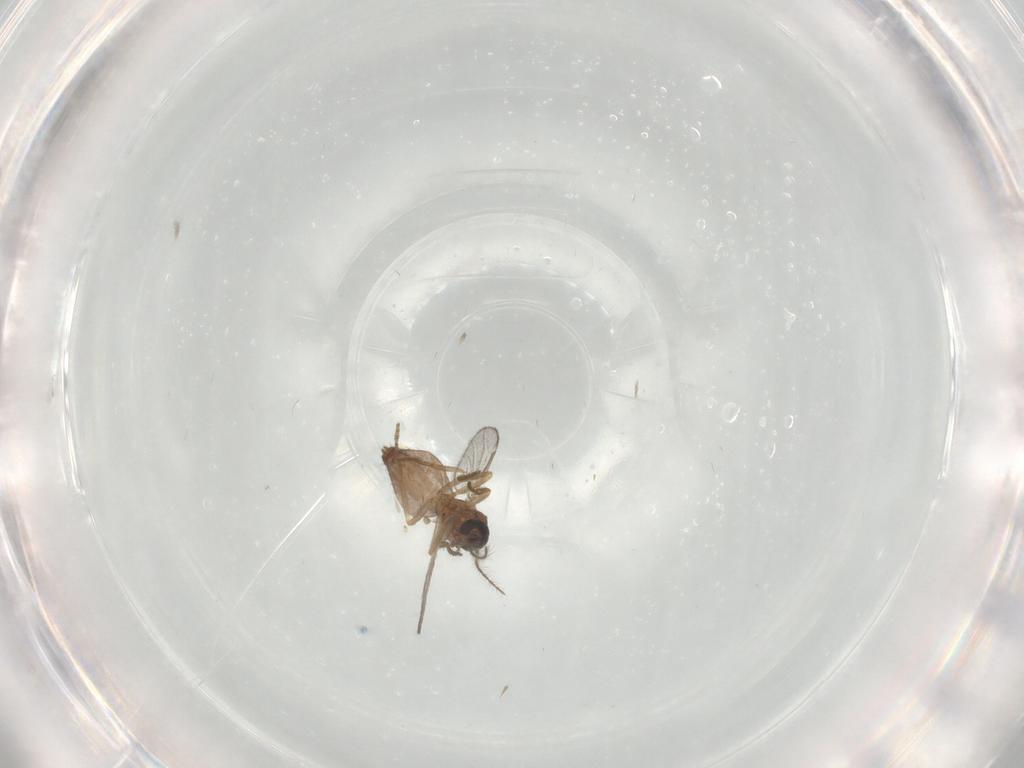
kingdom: Animalia
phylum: Arthropoda
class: Insecta
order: Diptera
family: Ceratopogonidae
